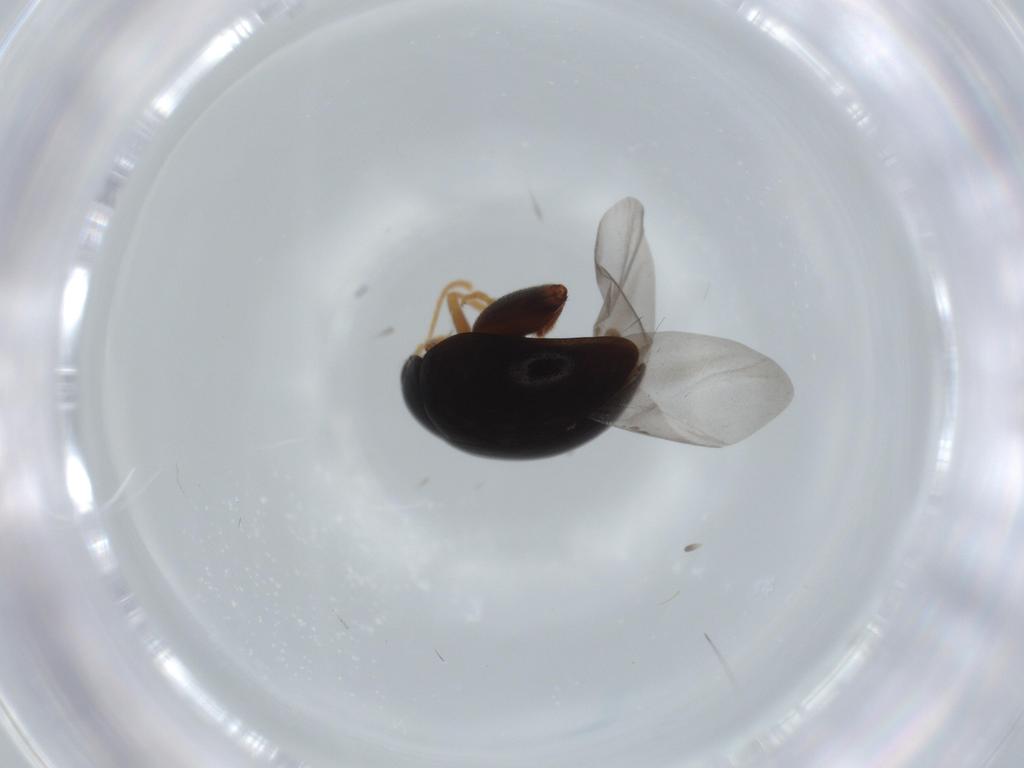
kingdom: Animalia
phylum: Arthropoda
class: Insecta
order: Coleoptera
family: Chrysomelidae
